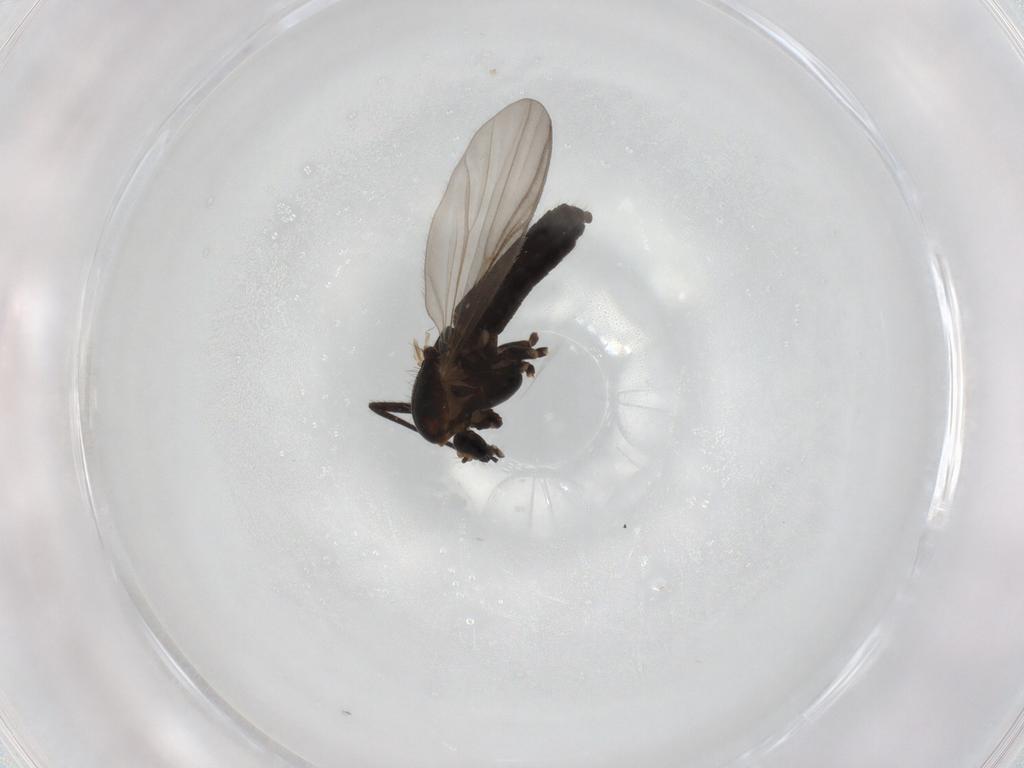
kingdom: Animalia
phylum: Arthropoda
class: Insecta
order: Diptera
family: Chironomidae
